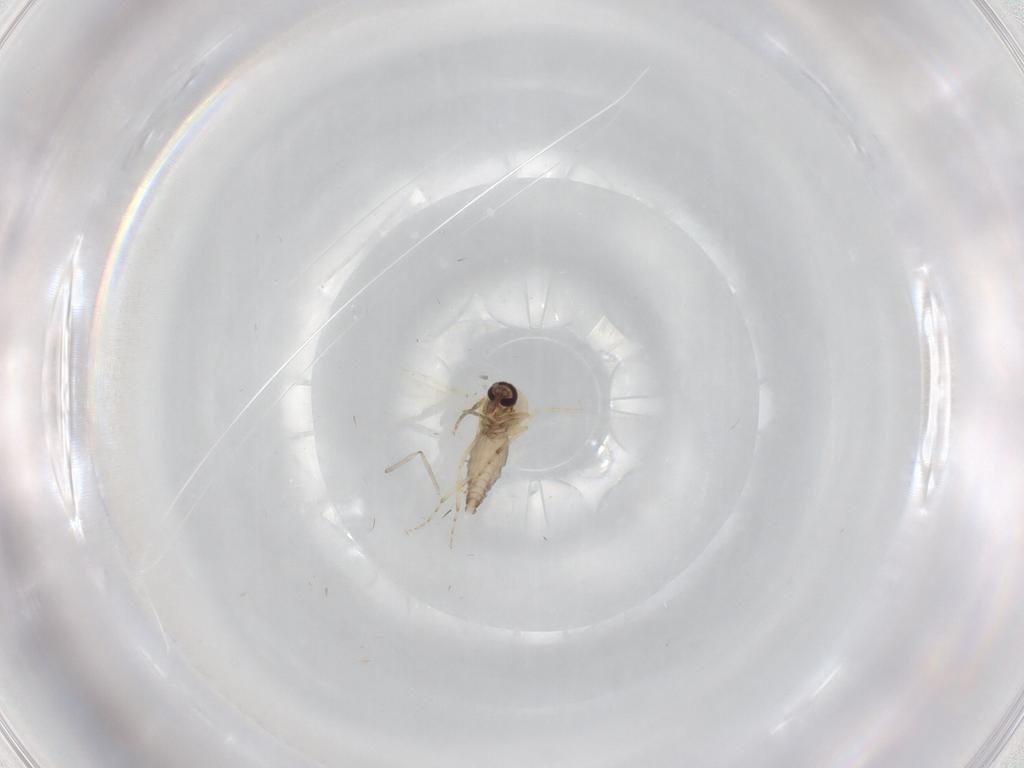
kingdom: Animalia
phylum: Arthropoda
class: Insecta
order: Diptera
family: Ceratopogonidae
